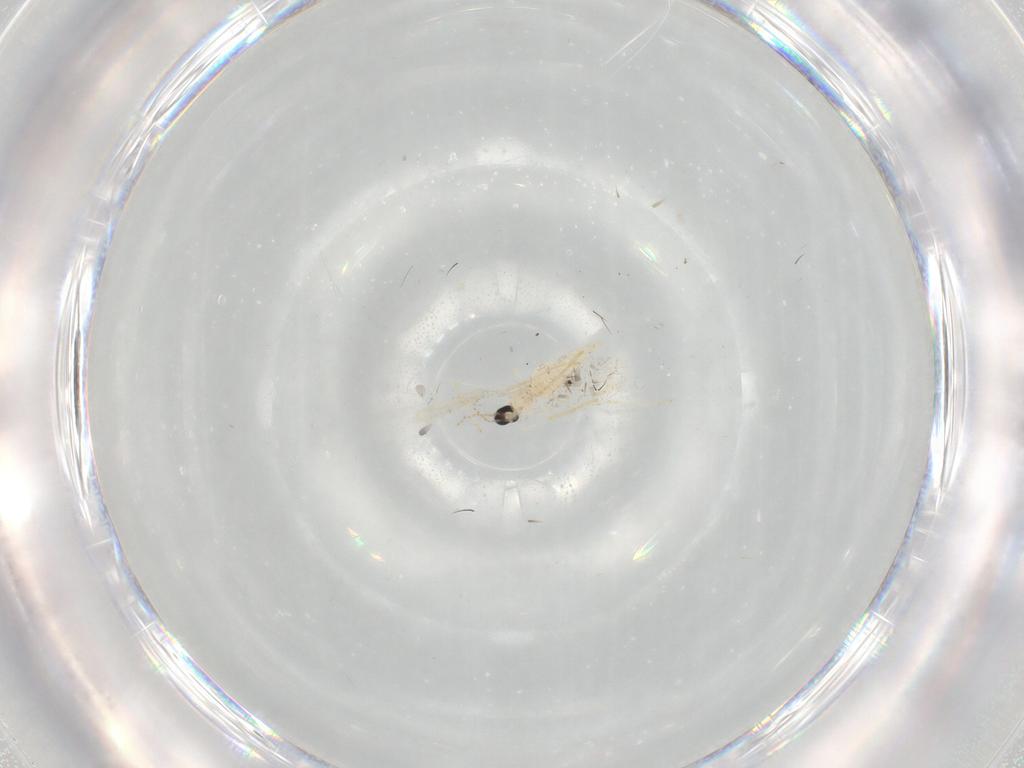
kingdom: Animalia
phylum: Arthropoda
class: Insecta
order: Diptera
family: Cecidomyiidae
